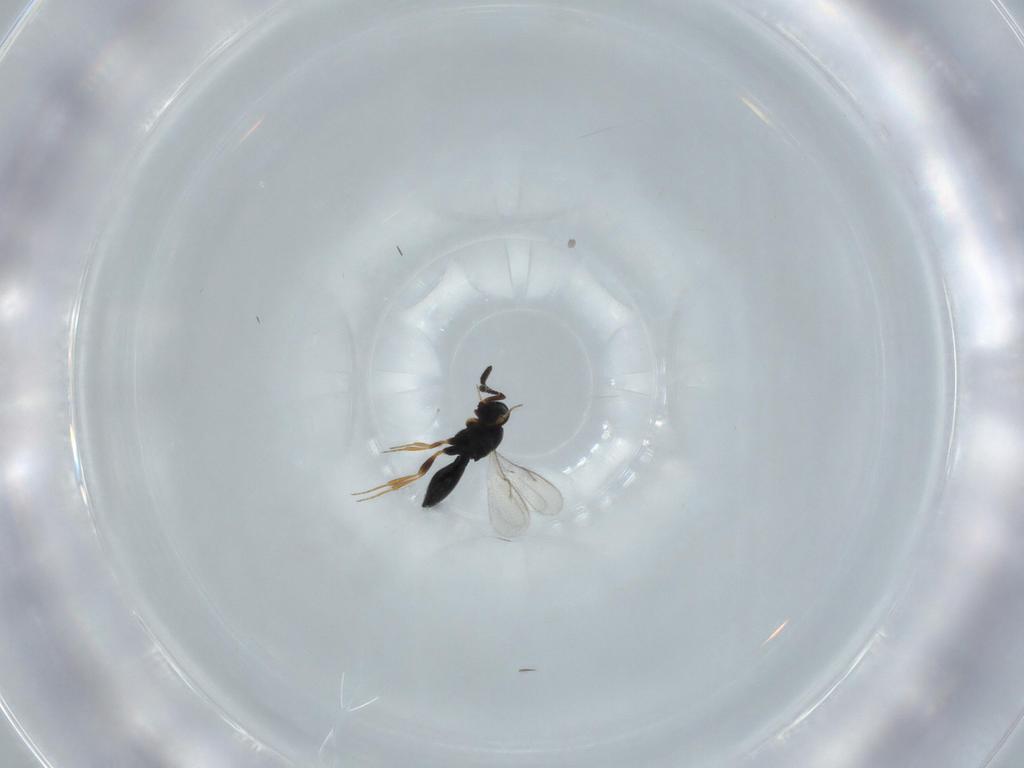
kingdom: Animalia
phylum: Arthropoda
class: Insecta
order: Hymenoptera
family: Scelionidae
